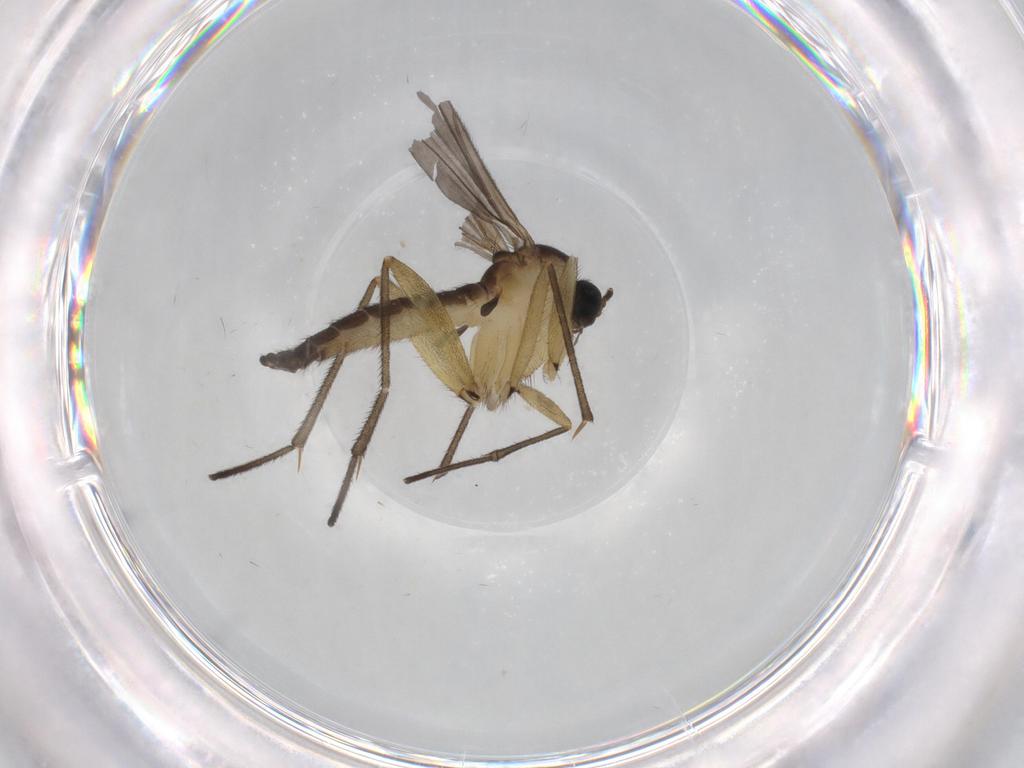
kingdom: Animalia
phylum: Arthropoda
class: Insecta
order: Diptera
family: Sciaridae
